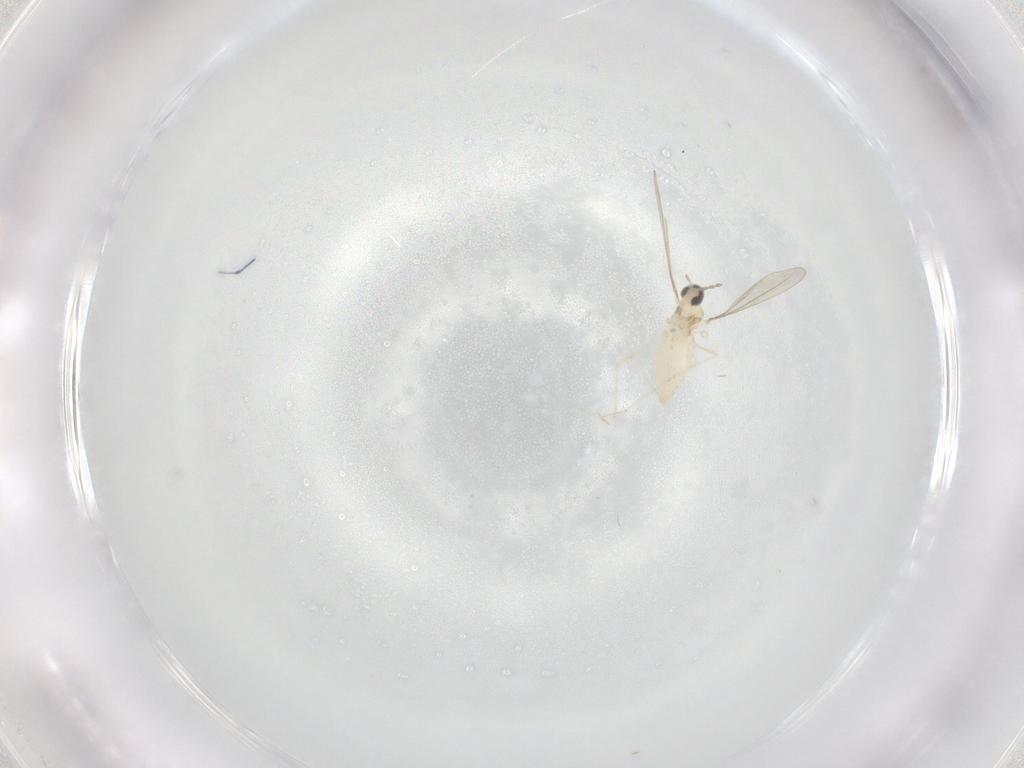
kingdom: Animalia
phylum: Arthropoda
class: Insecta
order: Diptera
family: Cecidomyiidae
